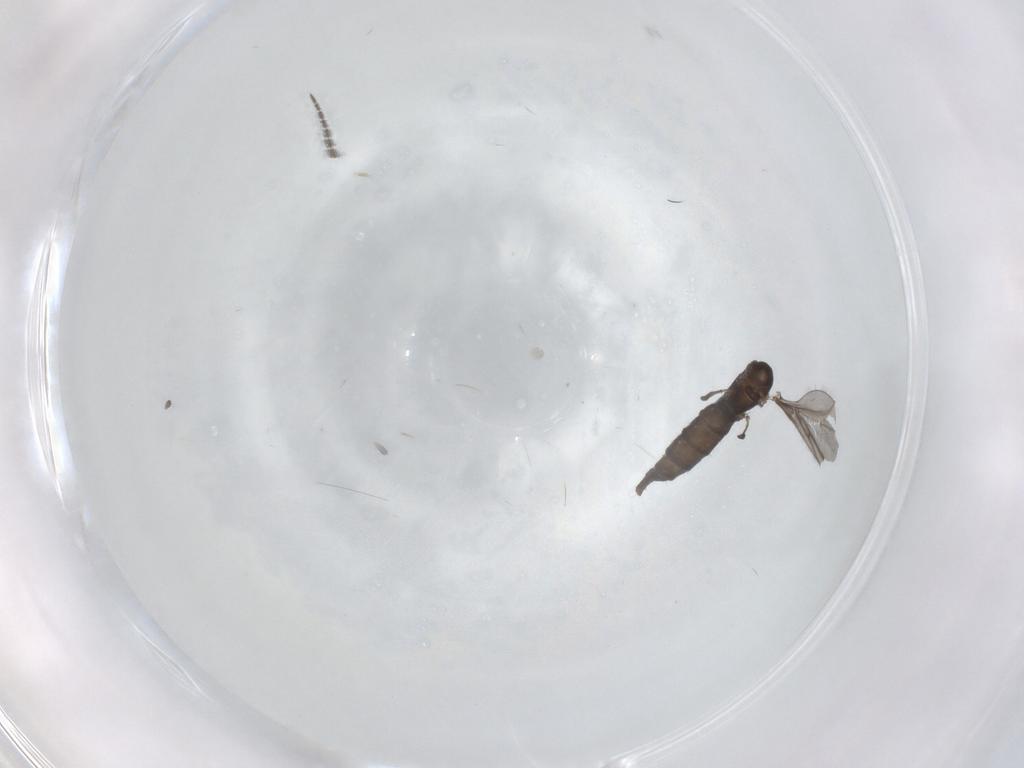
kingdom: Animalia
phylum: Arthropoda
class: Insecta
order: Diptera
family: Sciaridae
